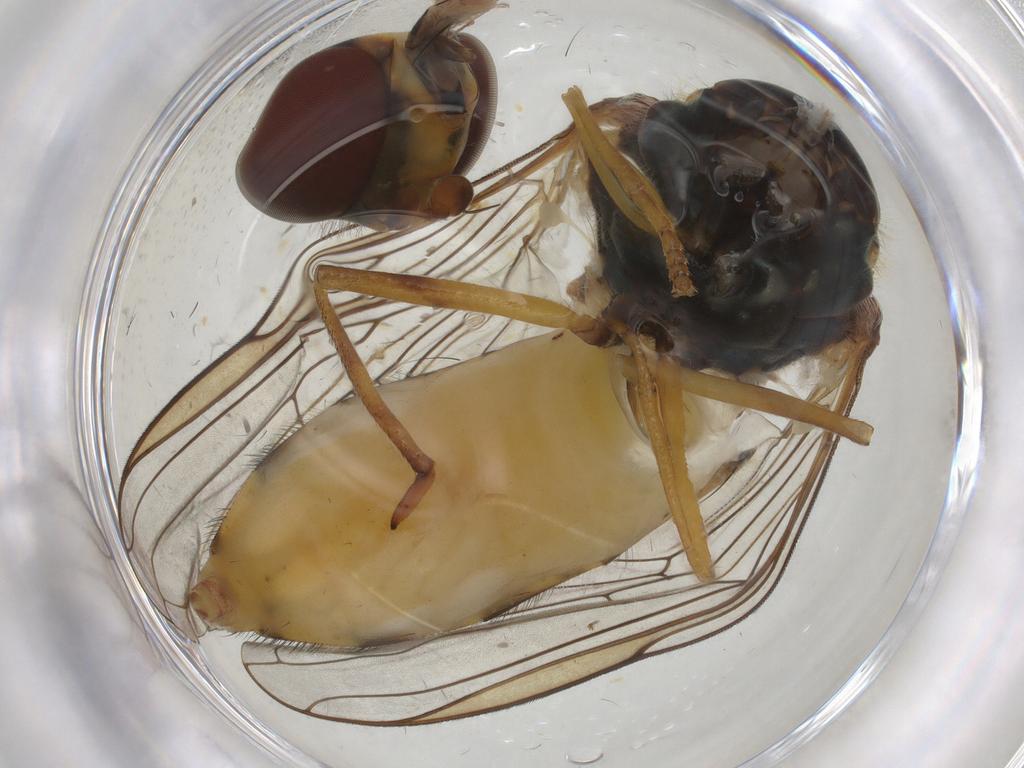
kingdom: Animalia
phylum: Arthropoda
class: Insecta
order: Diptera
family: Syrphidae
